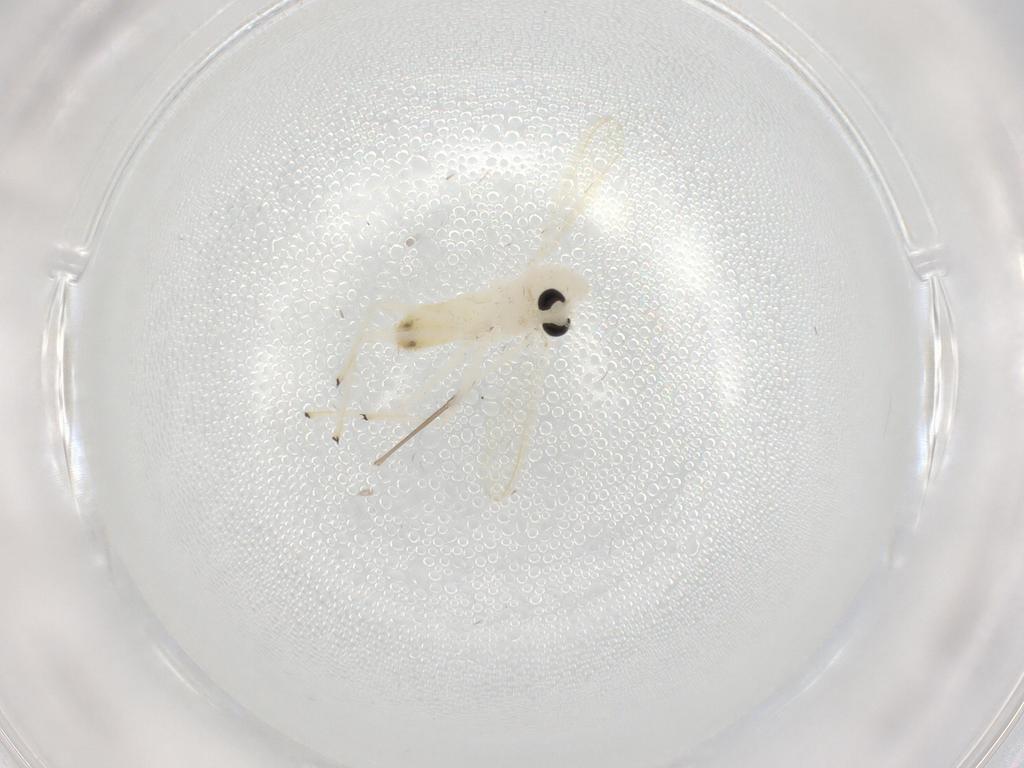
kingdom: Animalia
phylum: Arthropoda
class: Insecta
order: Diptera
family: Chironomidae
